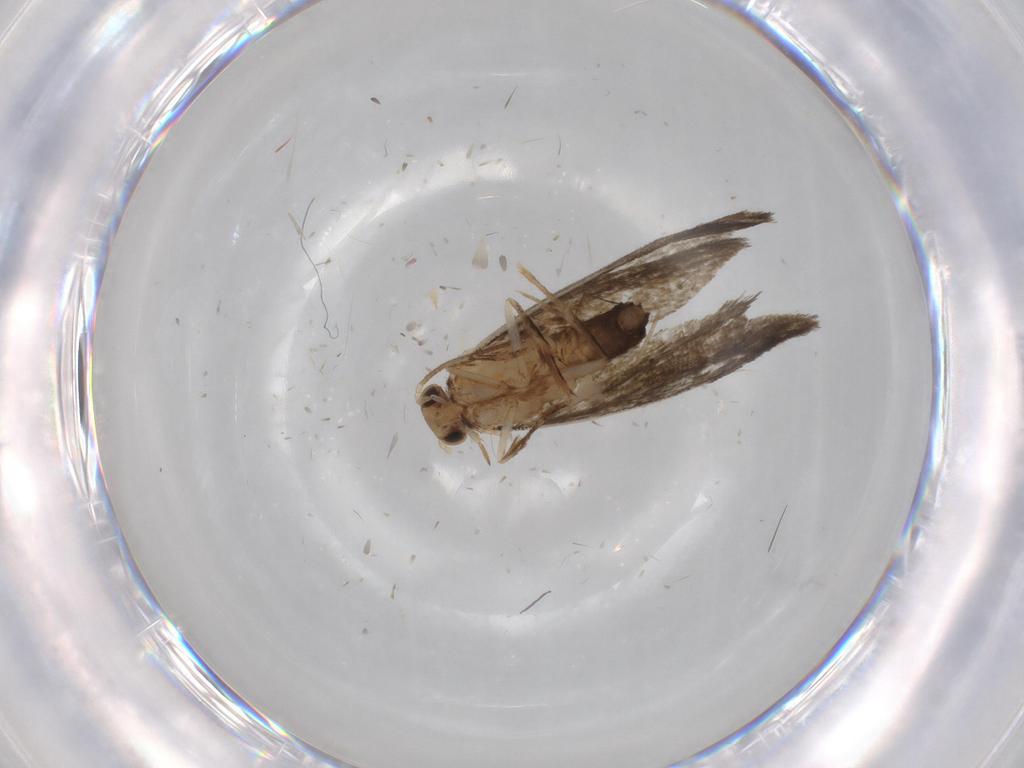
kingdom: Animalia
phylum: Arthropoda
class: Insecta
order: Lepidoptera
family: Tineidae
